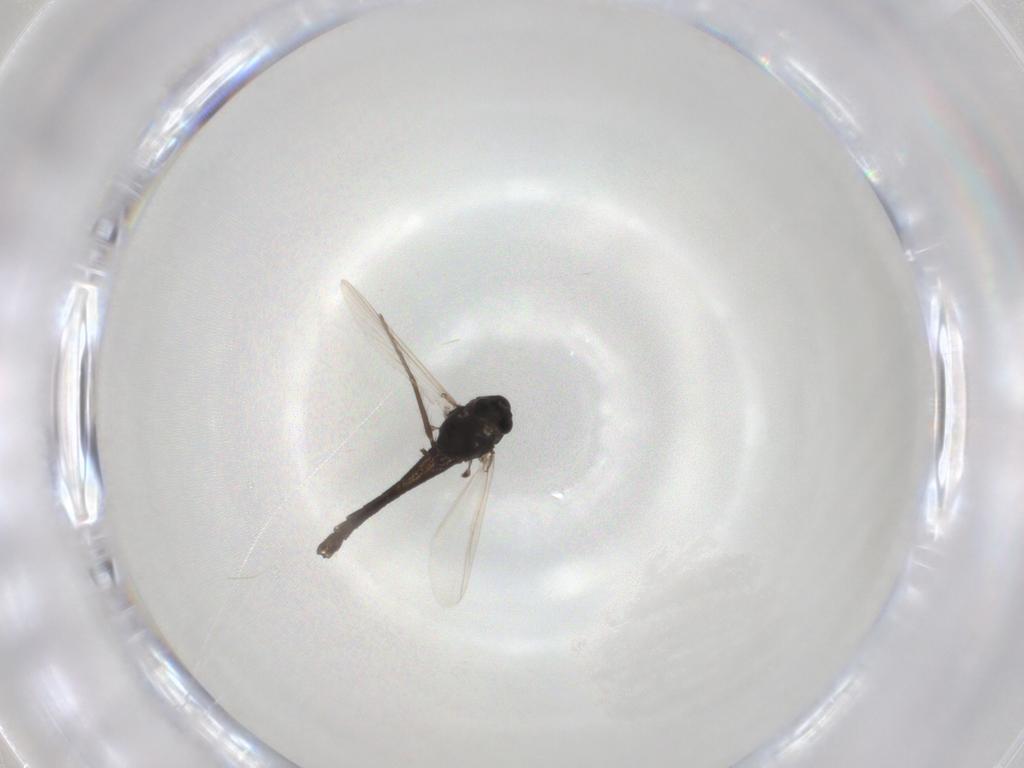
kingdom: Animalia
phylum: Arthropoda
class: Insecta
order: Diptera
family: Chironomidae
